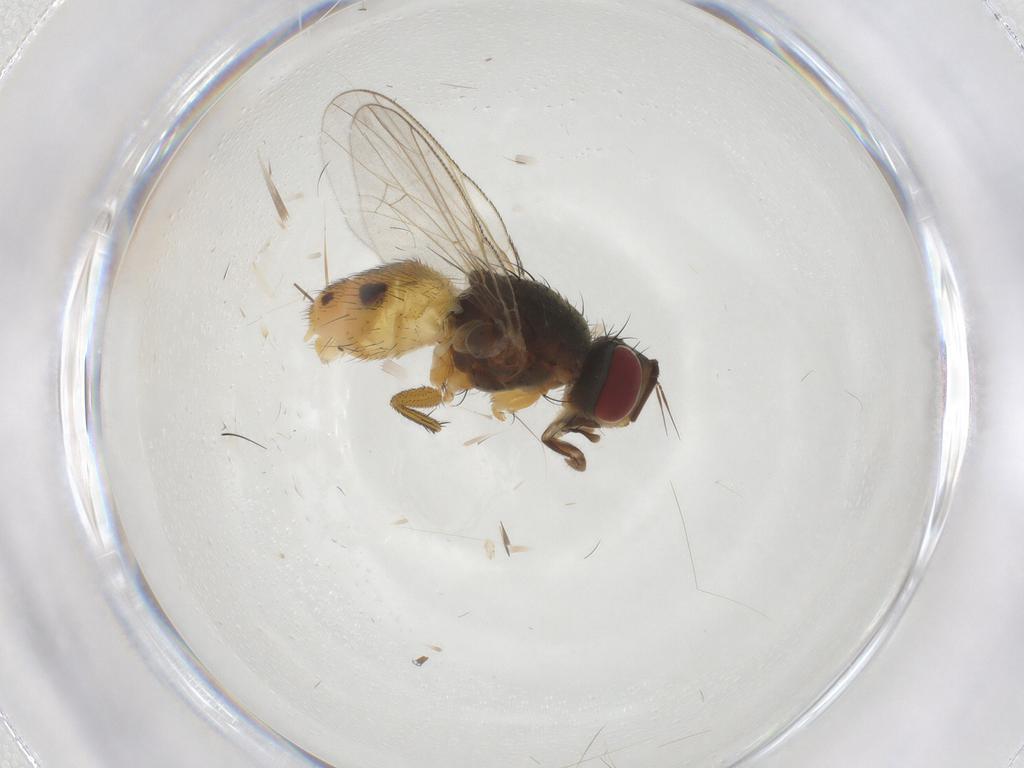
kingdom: Animalia
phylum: Arthropoda
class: Insecta
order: Diptera
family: Muscidae
